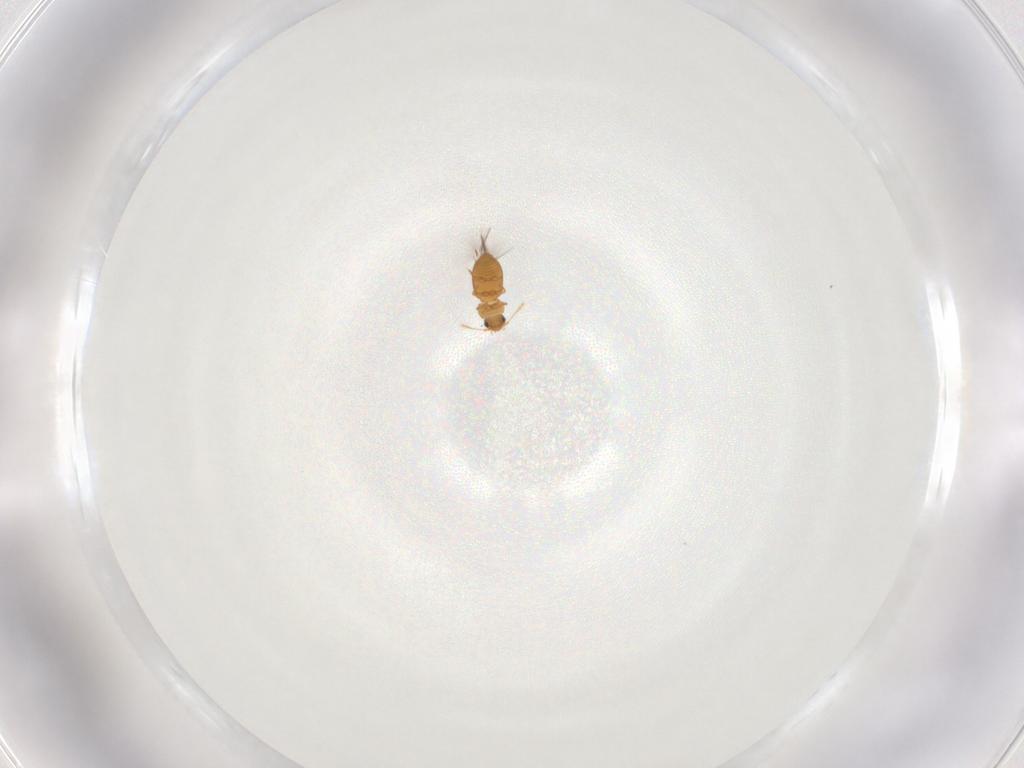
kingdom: Animalia
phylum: Arthropoda
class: Insecta
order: Coleoptera
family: Ptiliidae
